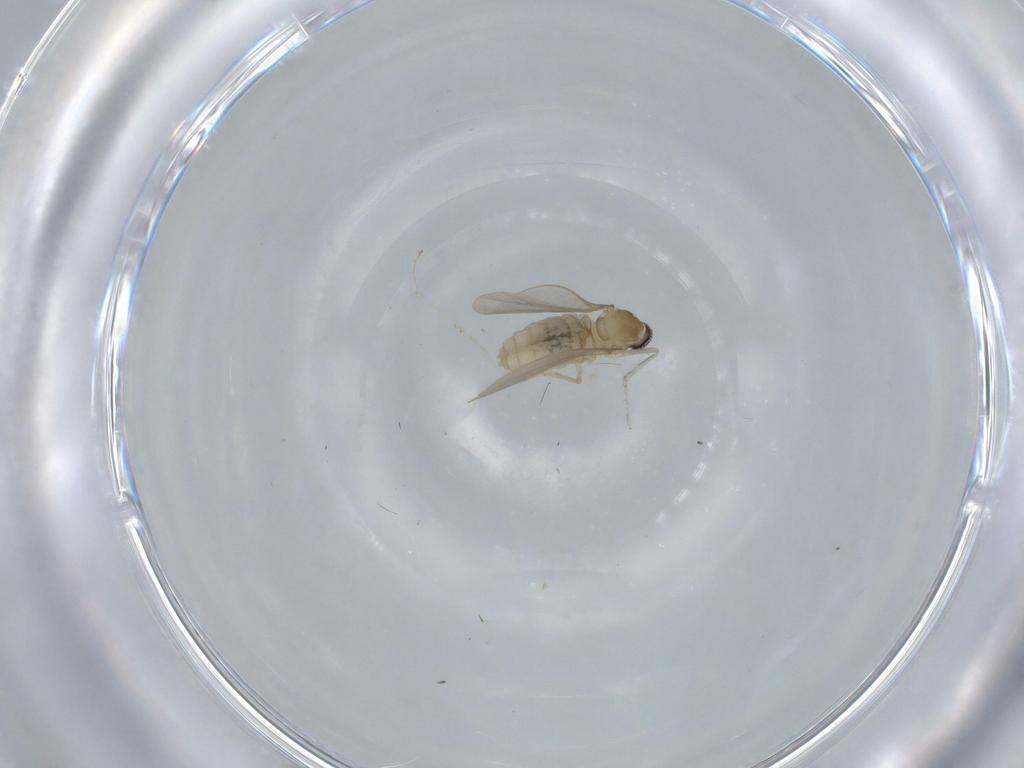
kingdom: Animalia
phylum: Arthropoda
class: Insecta
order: Diptera
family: Cecidomyiidae
